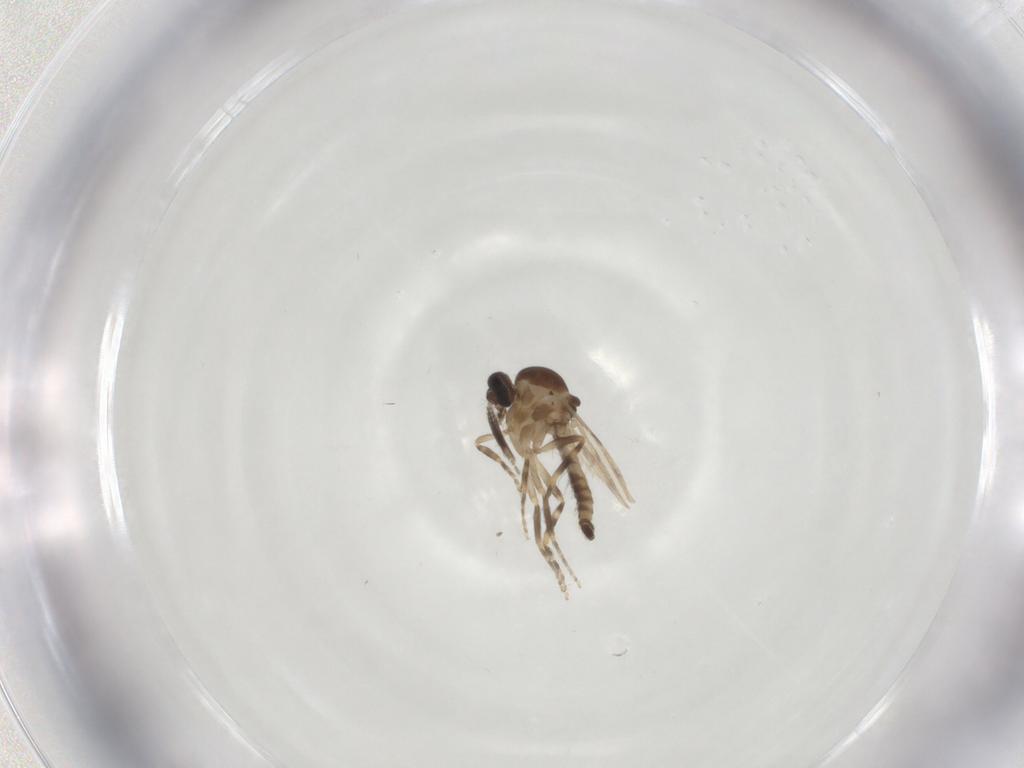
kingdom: Animalia
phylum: Arthropoda
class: Insecta
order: Diptera
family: Ceratopogonidae
